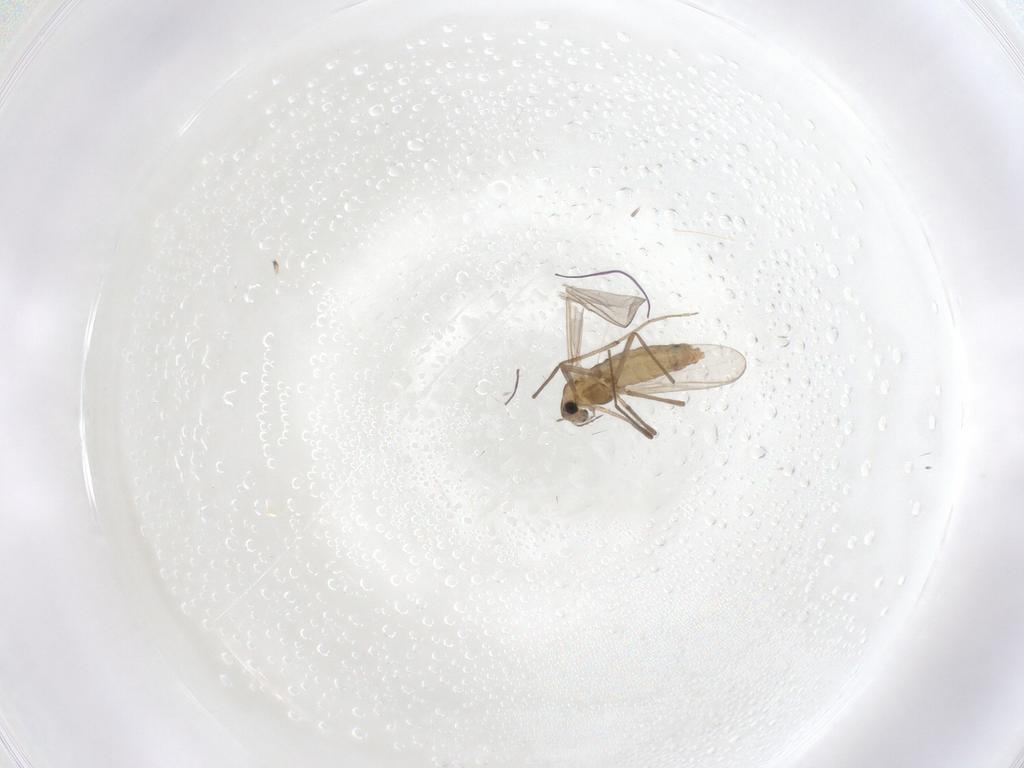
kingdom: Animalia
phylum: Arthropoda
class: Insecta
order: Diptera
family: Chironomidae
